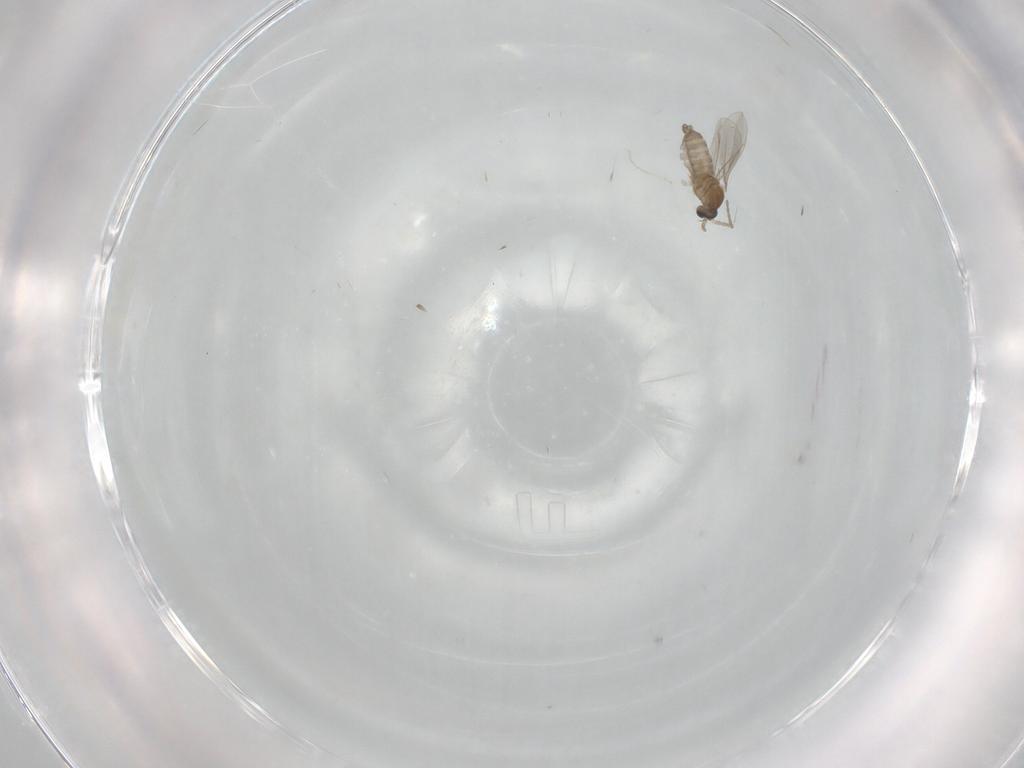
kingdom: Animalia
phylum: Arthropoda
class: Insecta
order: Diptera
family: Cecidomyiidae
